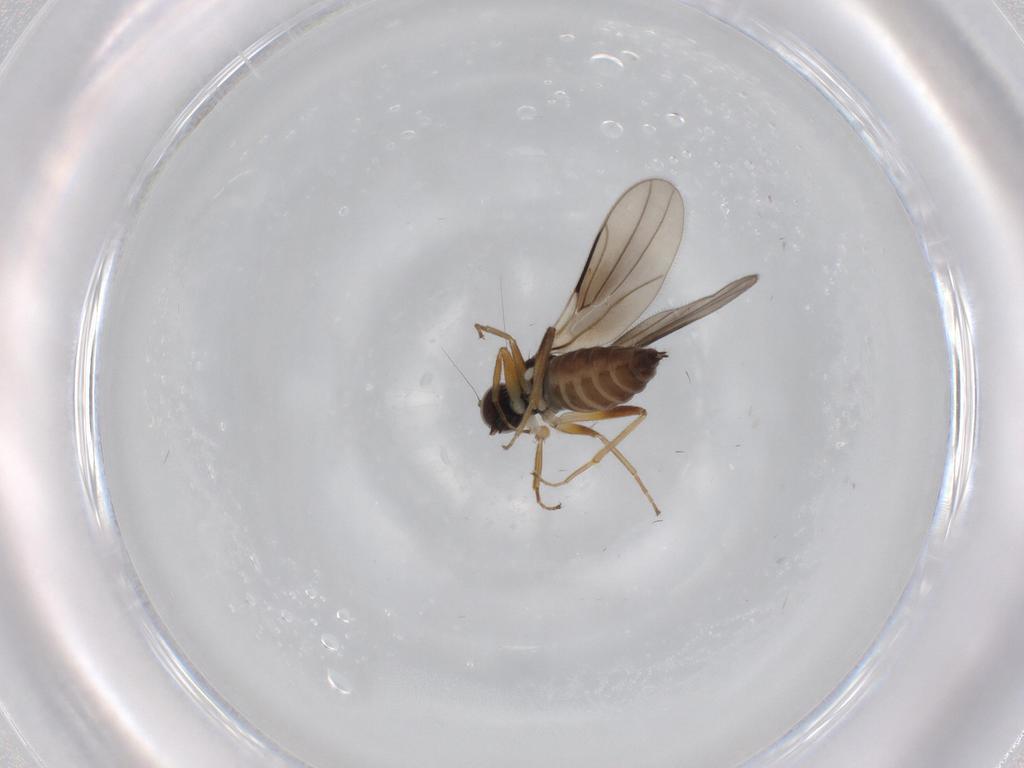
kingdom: Animalia
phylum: Arthropoda
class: Insecta
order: Diptera
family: Hybotidae
